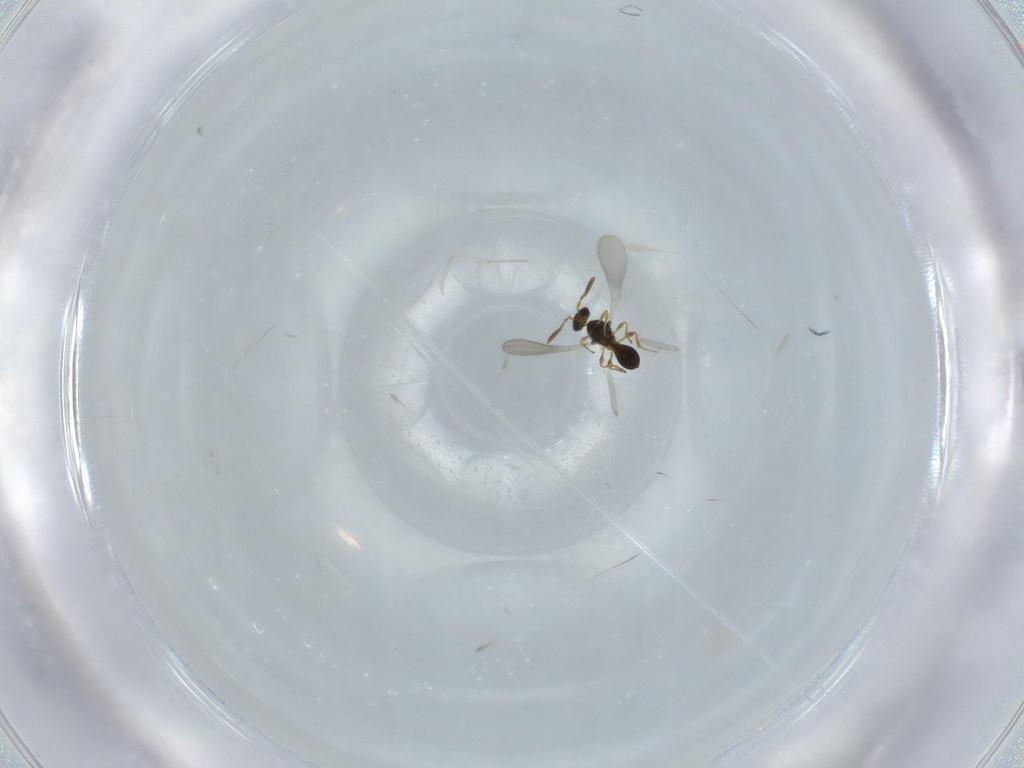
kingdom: Animalia
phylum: Arthropoda
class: Insecta
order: Hymenoptera
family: Platygastridae
